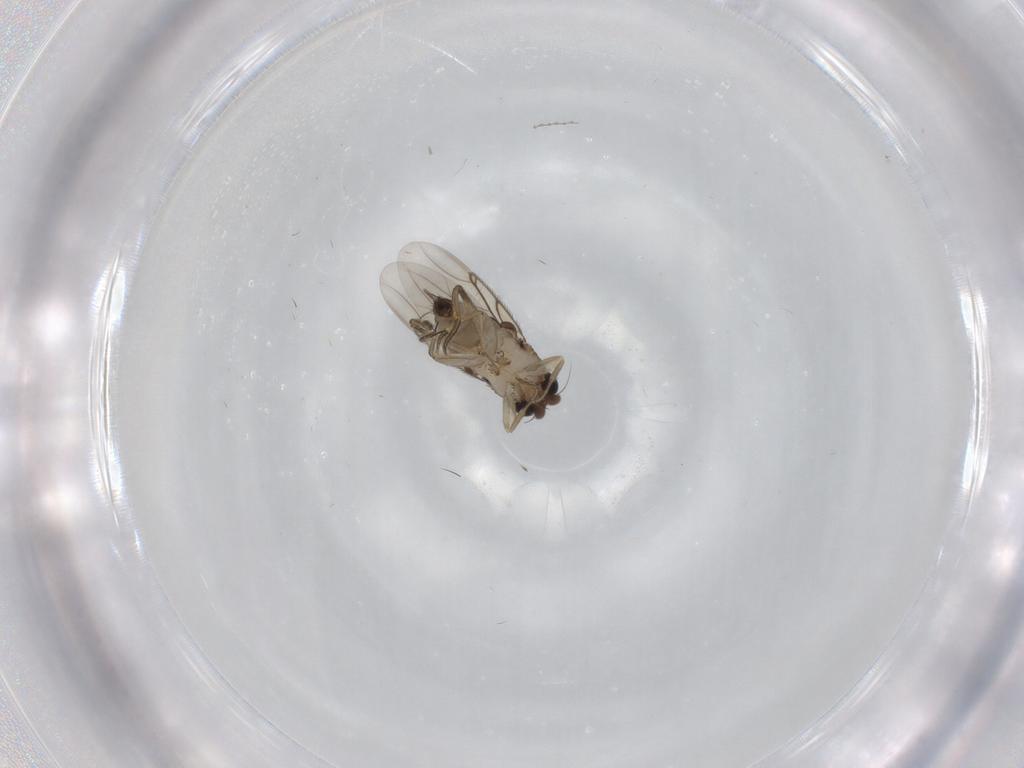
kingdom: Animalia
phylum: Arthropoda
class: Insecta
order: Diptera
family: Phoridae
